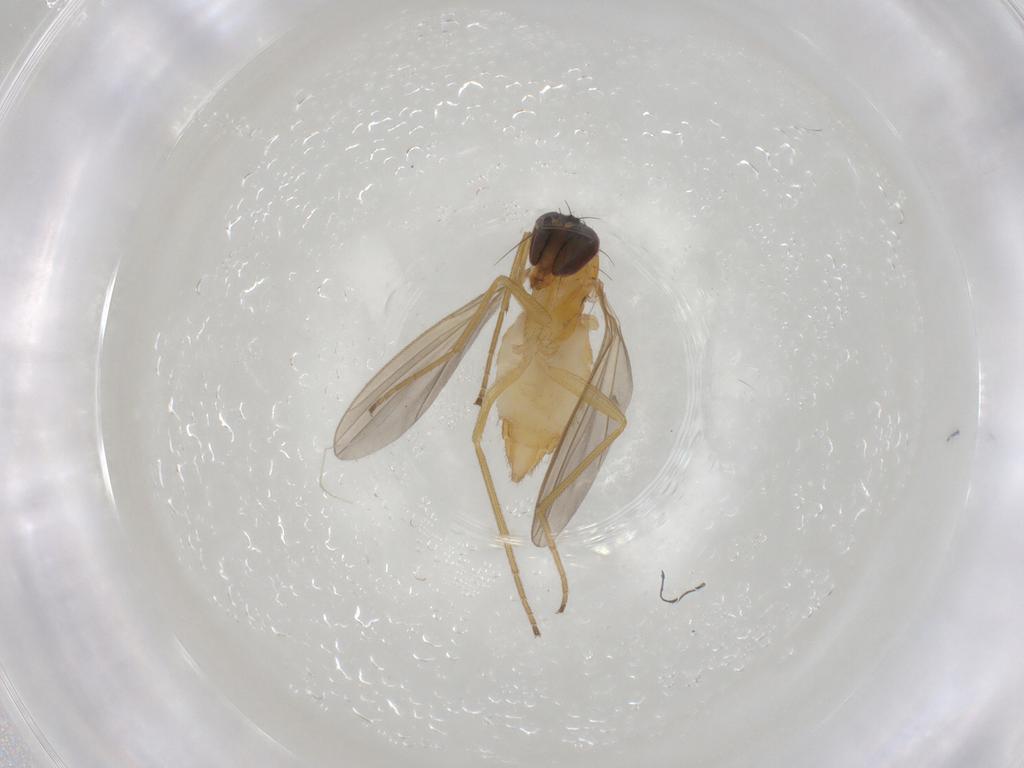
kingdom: Animalia
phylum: Arthropoda
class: Insecta
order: Diptera
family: Dolichopodidae
